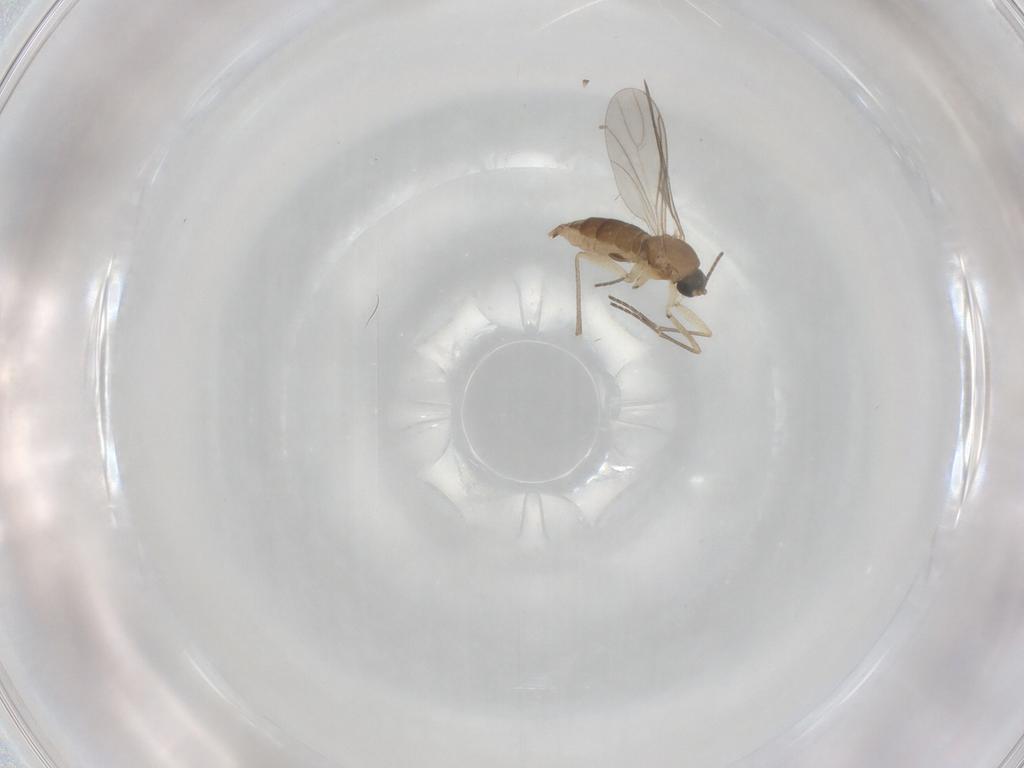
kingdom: Animalia
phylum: Arthropoda
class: Insecta
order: Diptera
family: Sciaridae
